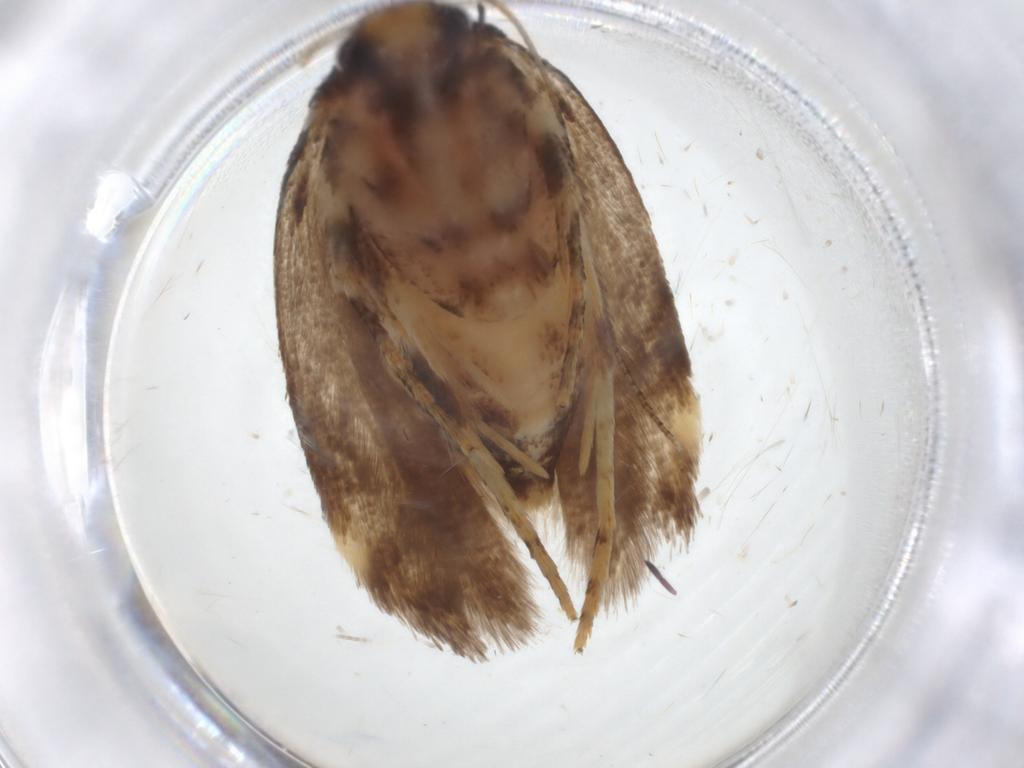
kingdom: Animalia
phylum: Arthropoda
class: Insecta
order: Lepidoptera
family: Gelechiidae
